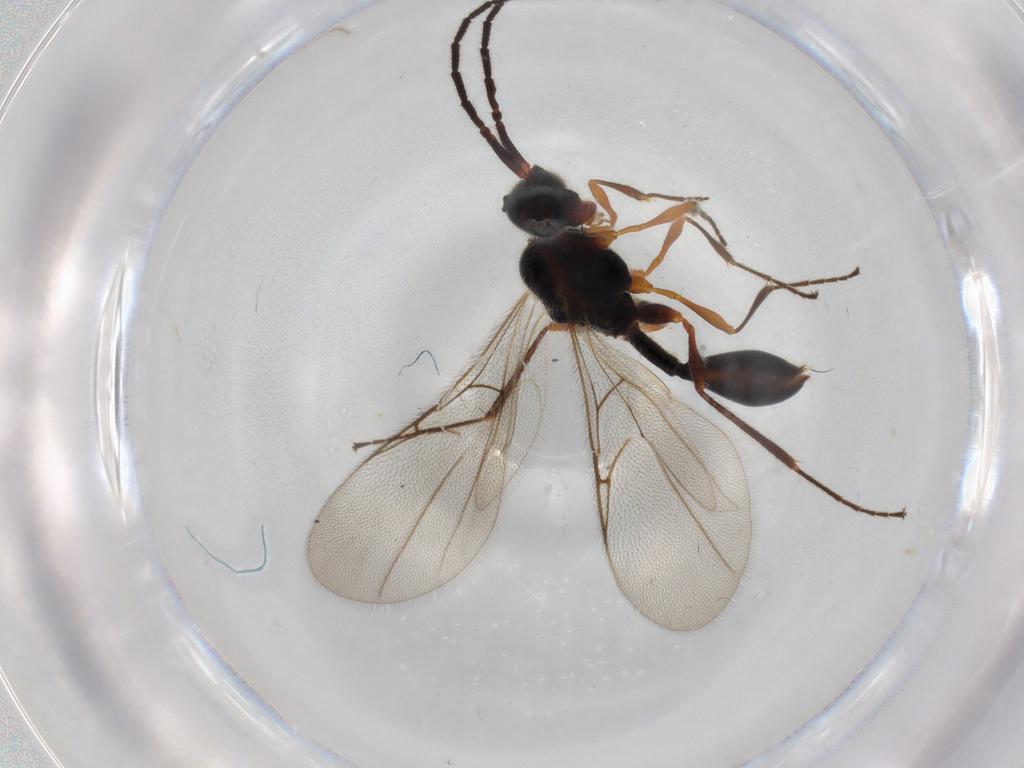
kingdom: Animalia
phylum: Arthropoda
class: Insecta
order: Hymenoptera
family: Diapriidae
